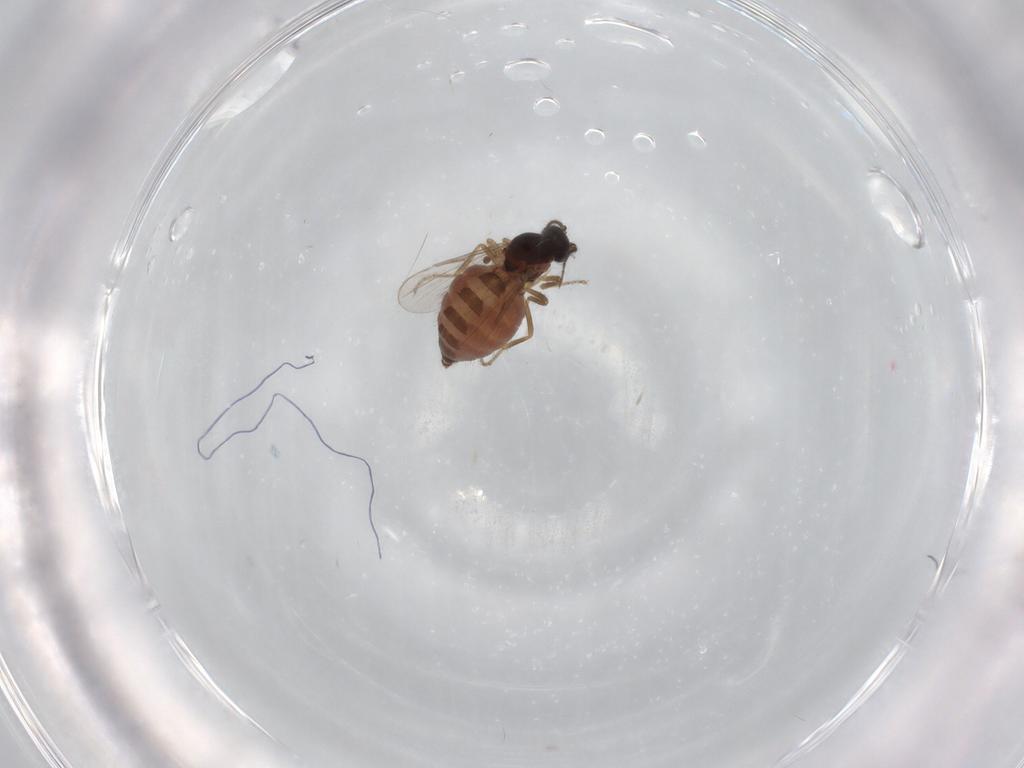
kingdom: Animalia
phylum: Arthropoda
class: Insecta
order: Diptera
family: Ceratopogonidae
